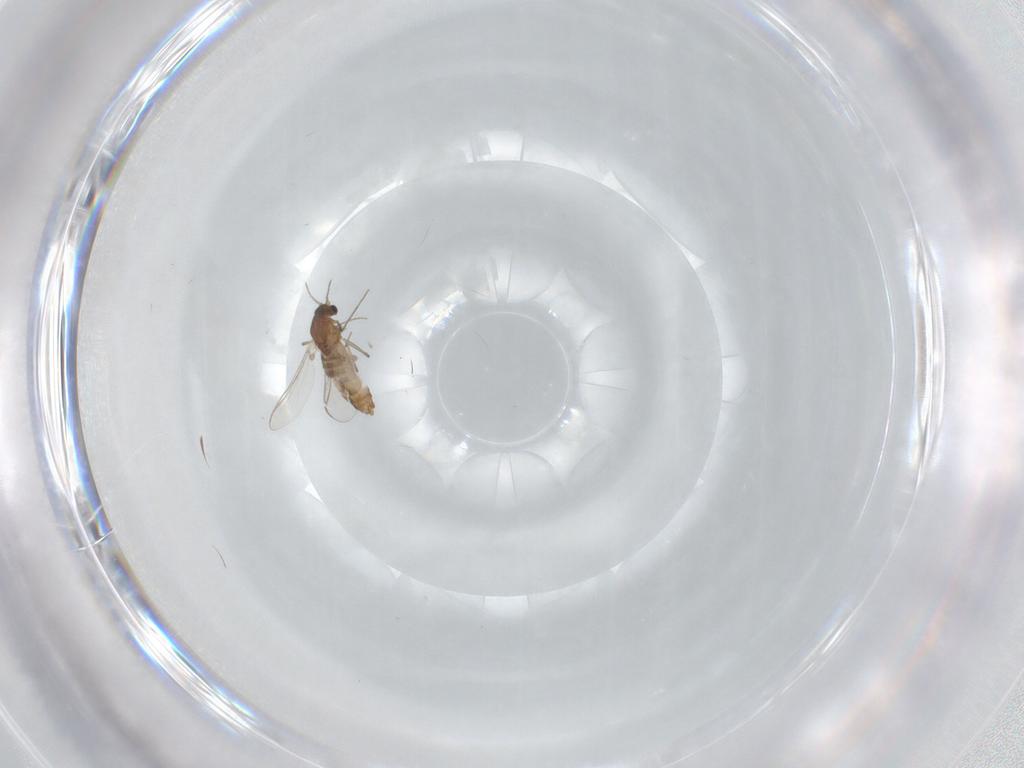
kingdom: Animalia
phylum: Arthropoda
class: Insecta
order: Diptera
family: Chironomidae
